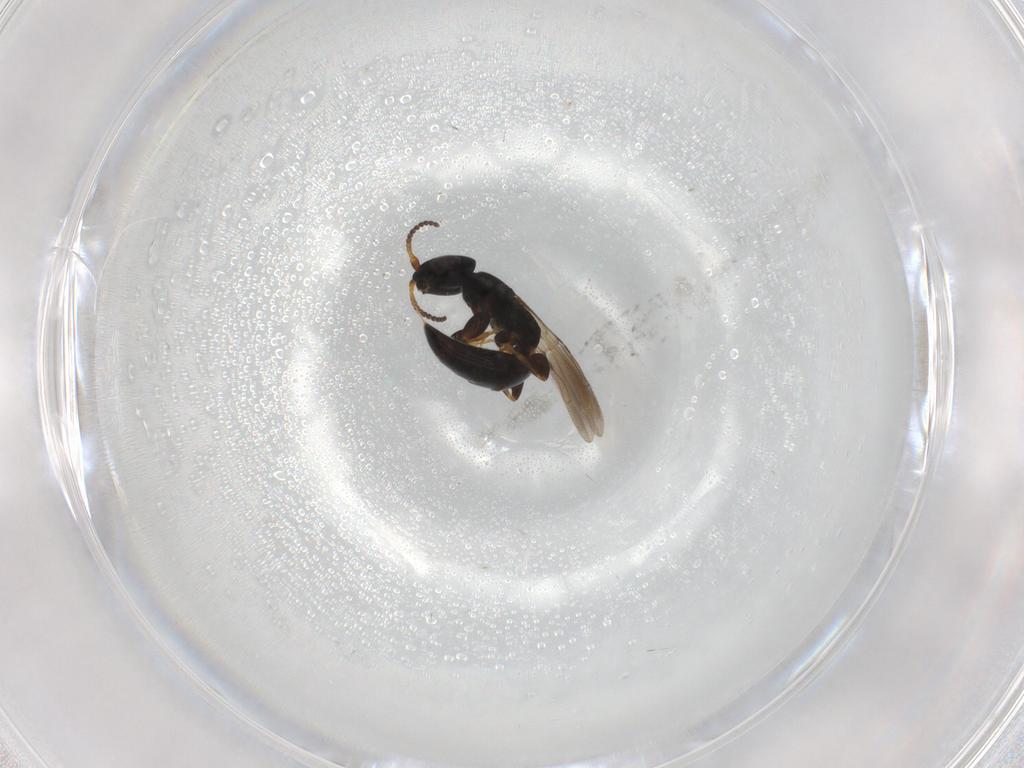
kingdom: Animalia
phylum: Arthropoda
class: Insecta
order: Hymenoptera
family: Bethylidae
